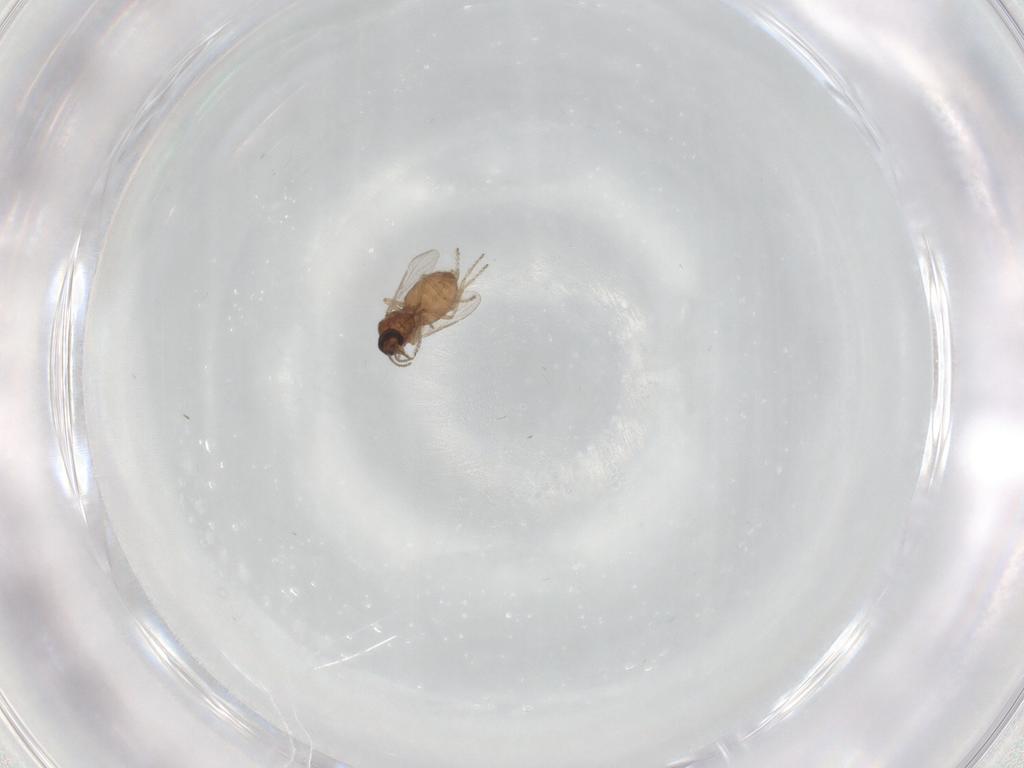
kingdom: Animalia
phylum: Arthropoda
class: Insecta
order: Diptera
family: Ceratopogonidae
